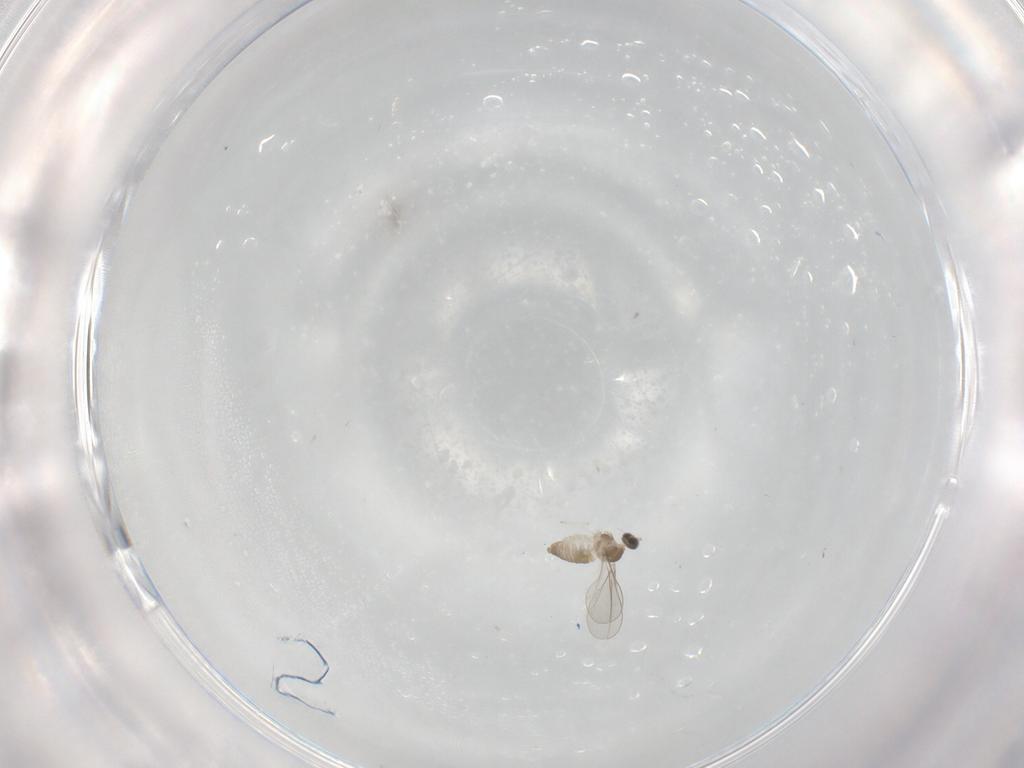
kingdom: Animalia
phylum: Arthropoda
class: Insecta
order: Diptera
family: Cecidomyiidae
